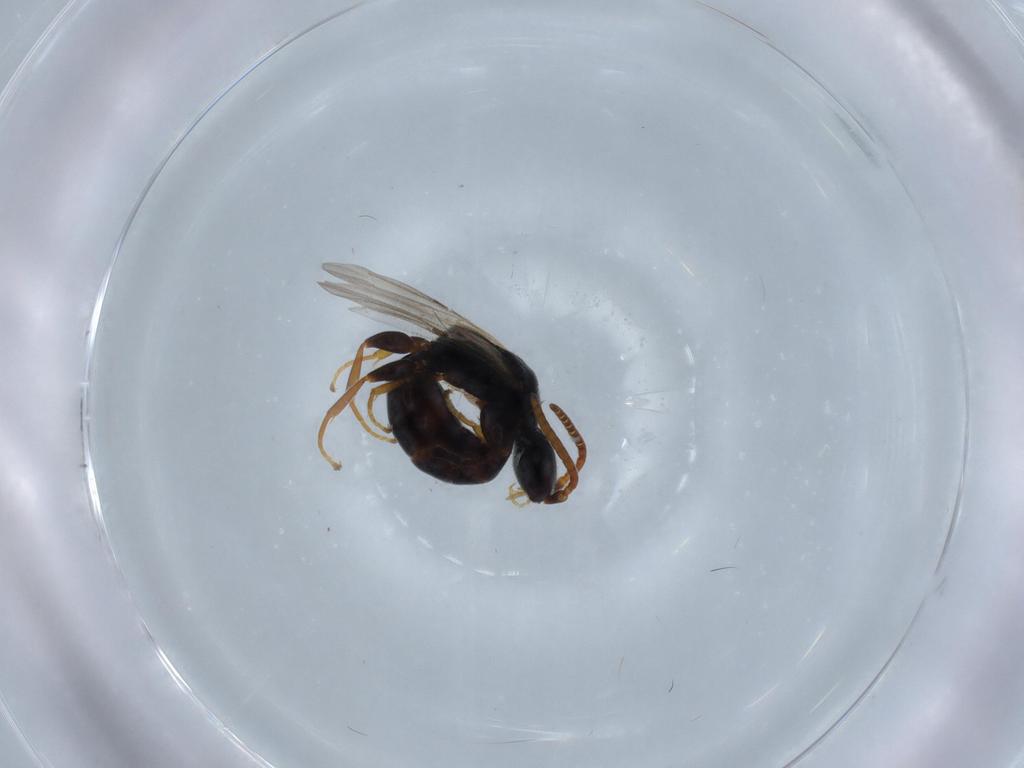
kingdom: Animalia
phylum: Arthropoda
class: Insecta
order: Hymenoptera
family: Bethylidae
